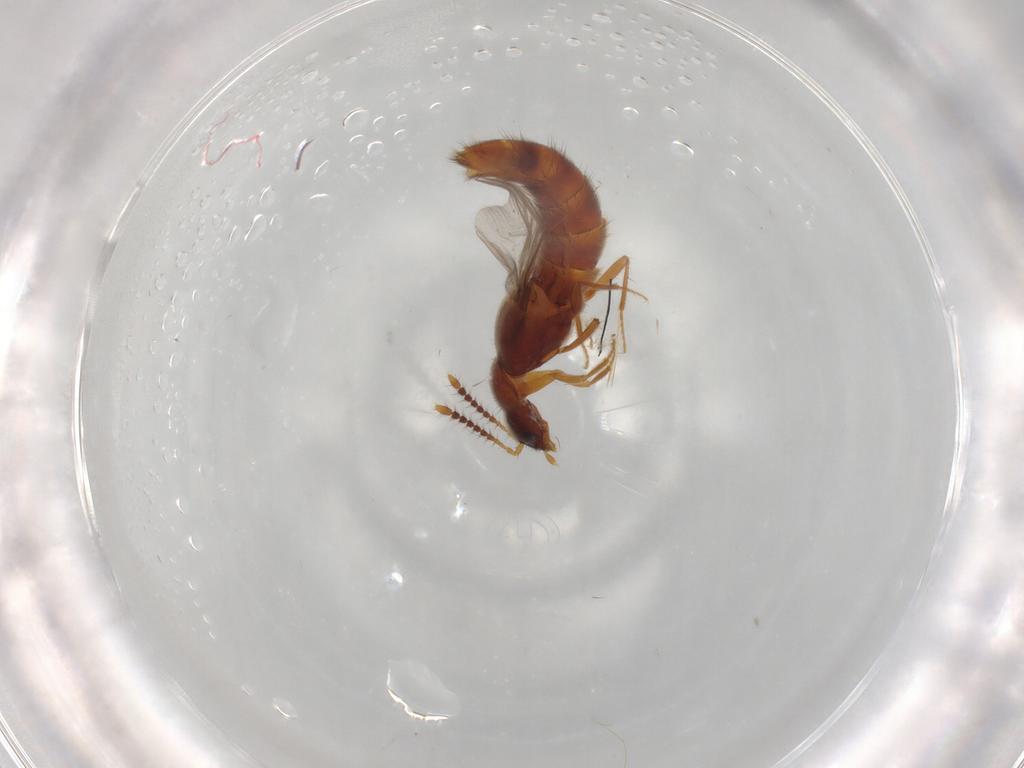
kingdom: Animalia
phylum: Arthropoda
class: Insecta
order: Coleoptera
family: Staphylinidae
